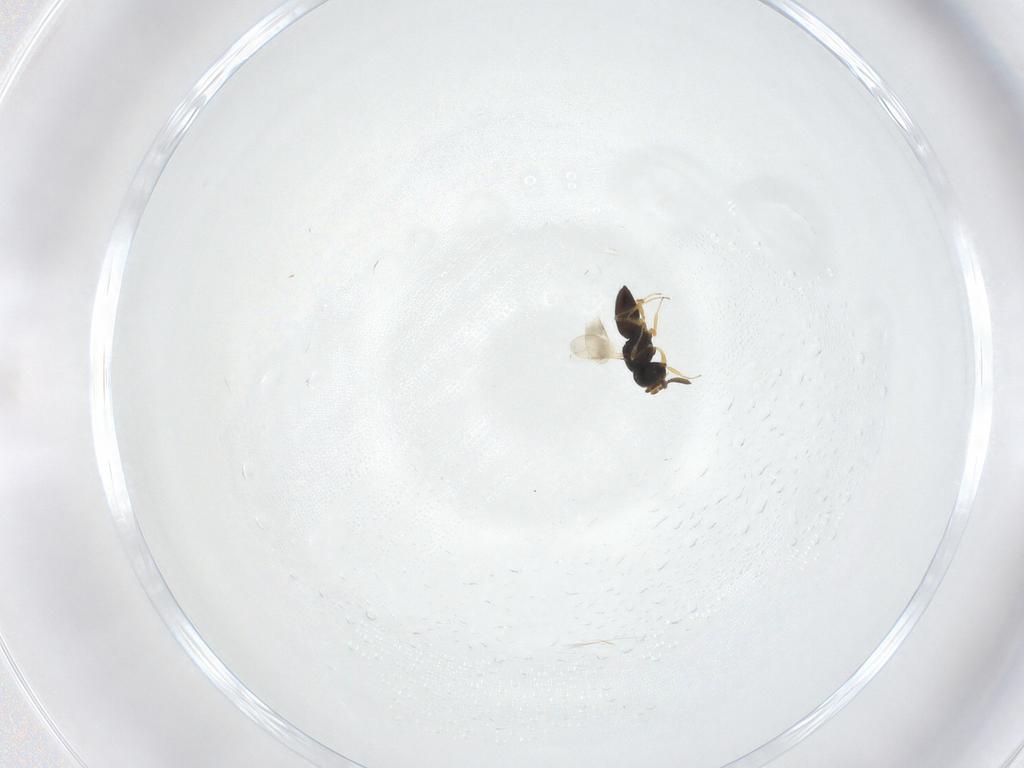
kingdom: Animalia
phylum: Arthropoda
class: Insecta
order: Hymenoptera
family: Scelionidae
